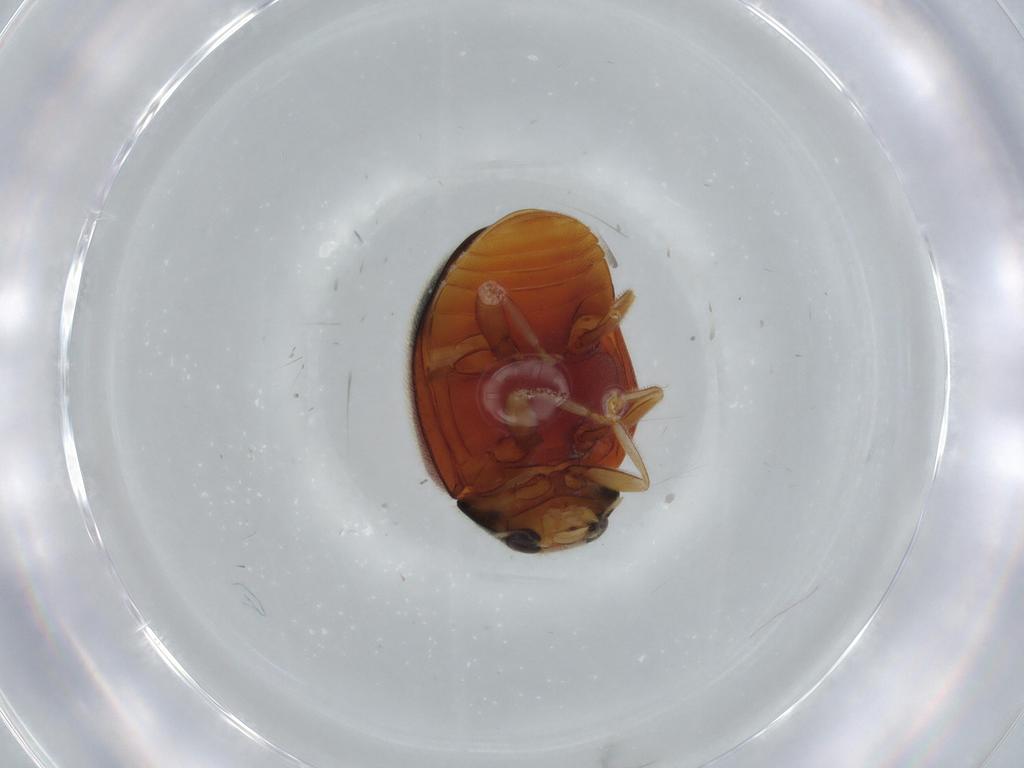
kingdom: Animalia
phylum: Arthropoda
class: Insecta
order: Coleoptera
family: Coccinellidae
